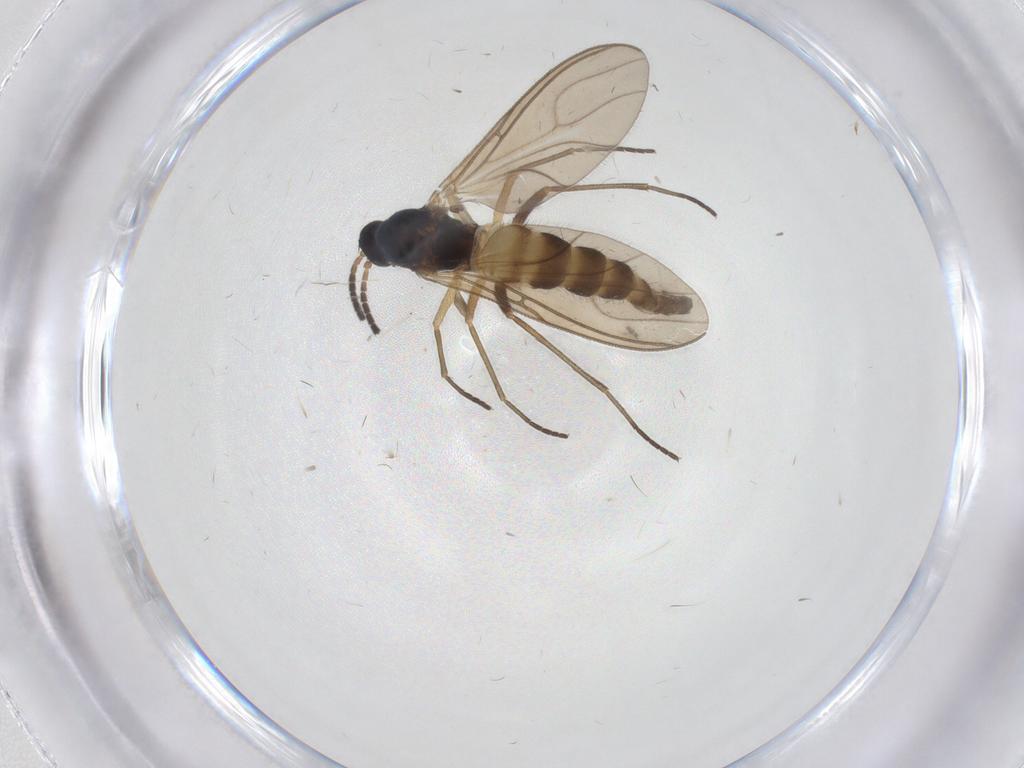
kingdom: Animalia
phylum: Arthropoda
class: Insecta
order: Diptera
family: Sciaridae
